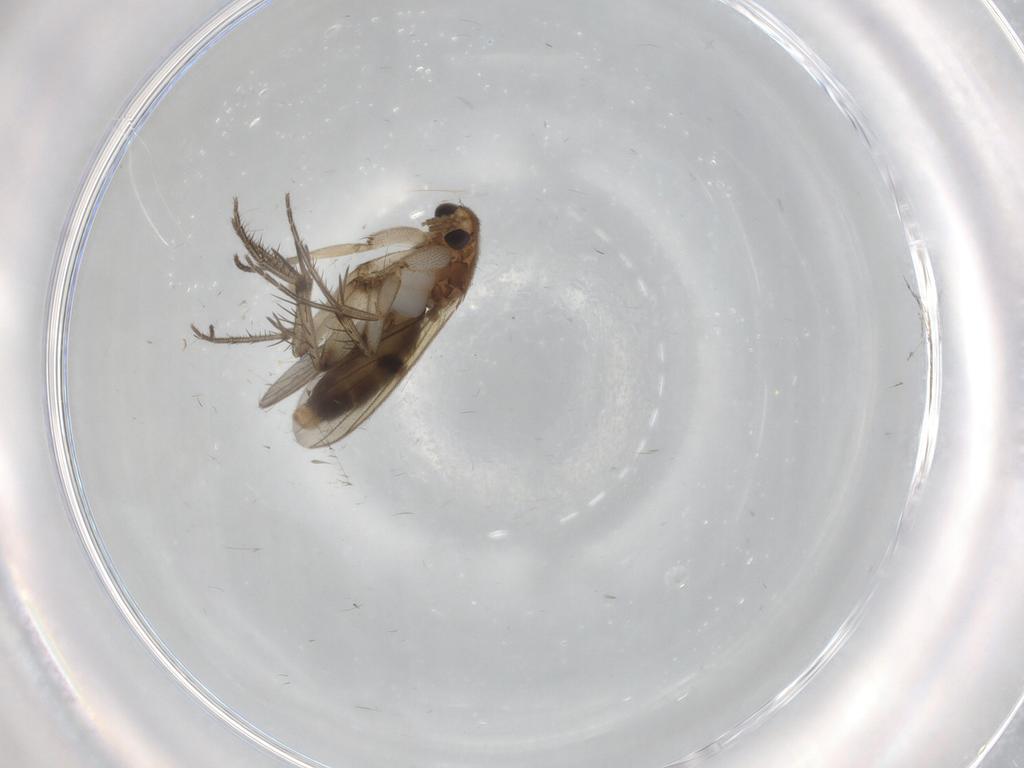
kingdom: Animalia
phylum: Arthropoda
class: Insecta
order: Diptera
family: Mycetophilidae
